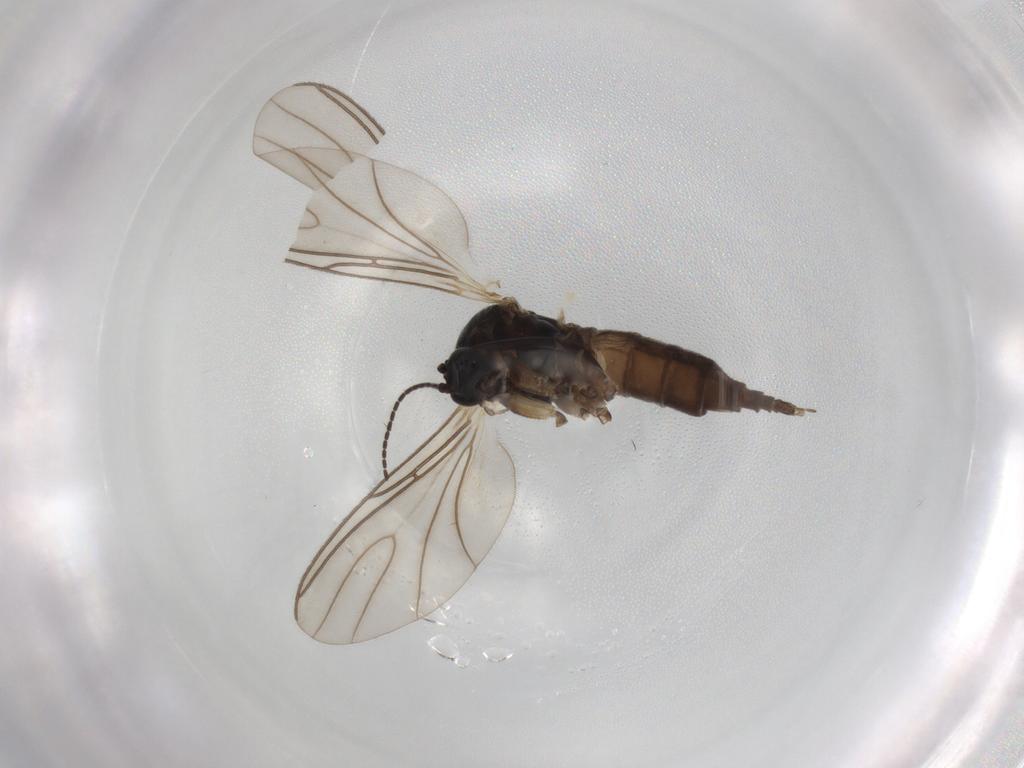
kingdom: Animalia
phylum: Arthropoda
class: Insecta
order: Diptera
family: Sciaridae
